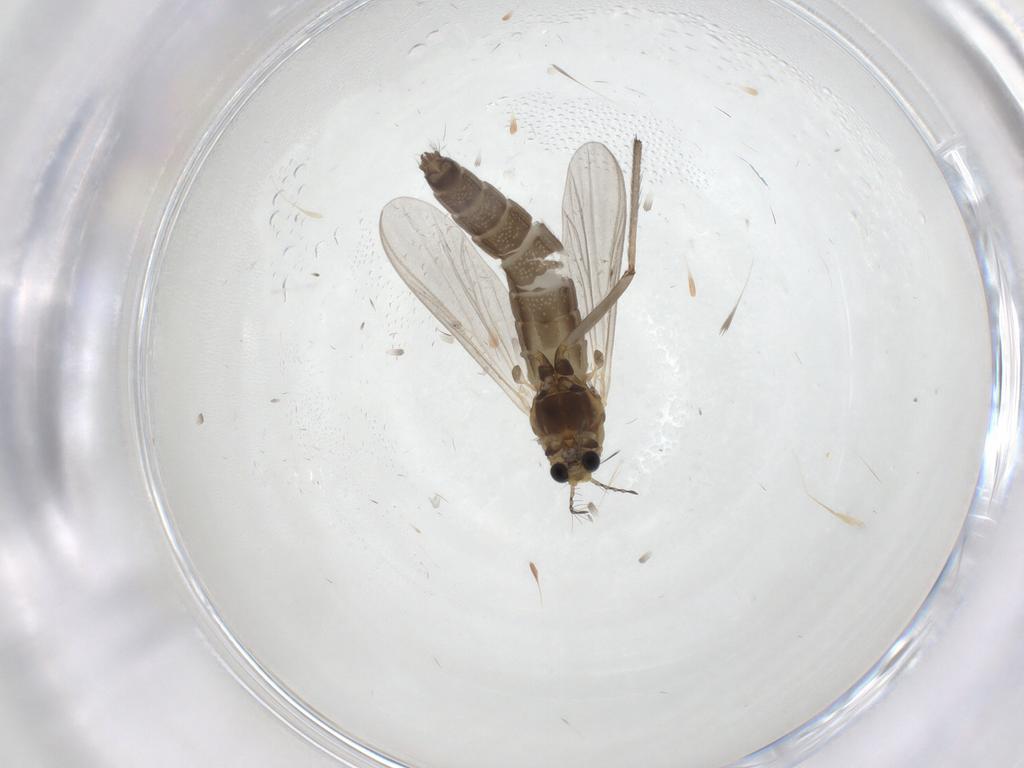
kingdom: Animalia
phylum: Arthropoda
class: Insecta
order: Diptera
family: Chironomidae
